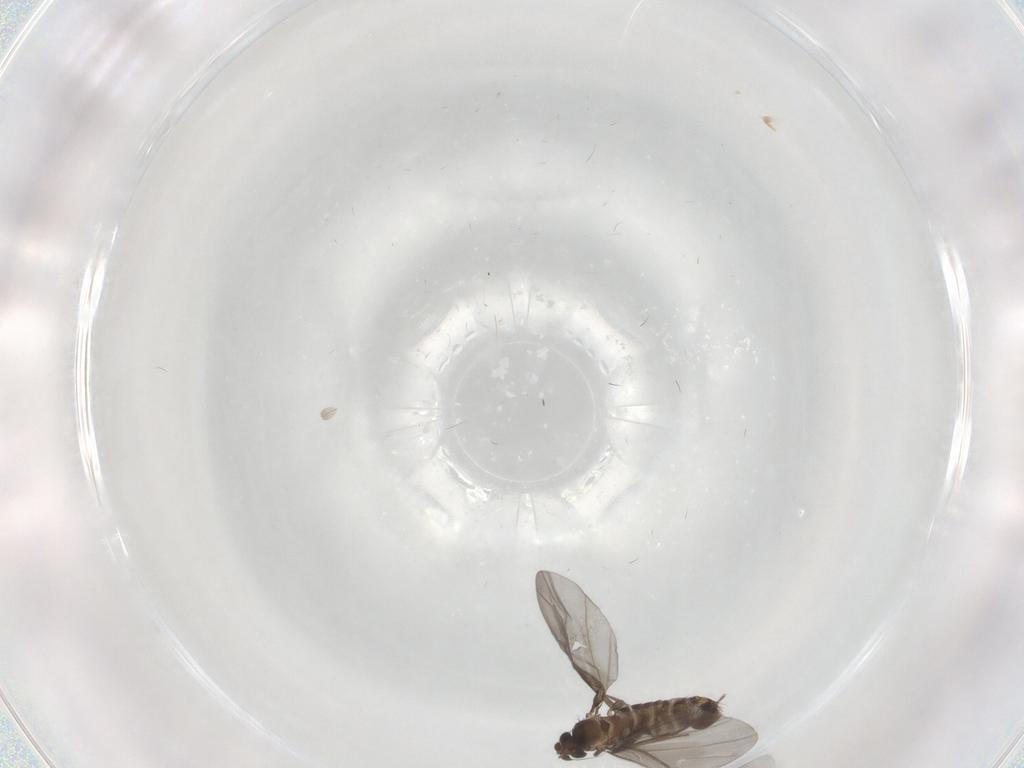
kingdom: Animalia
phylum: Arthropoda
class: Insecta
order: Diptera
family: Phoridae
